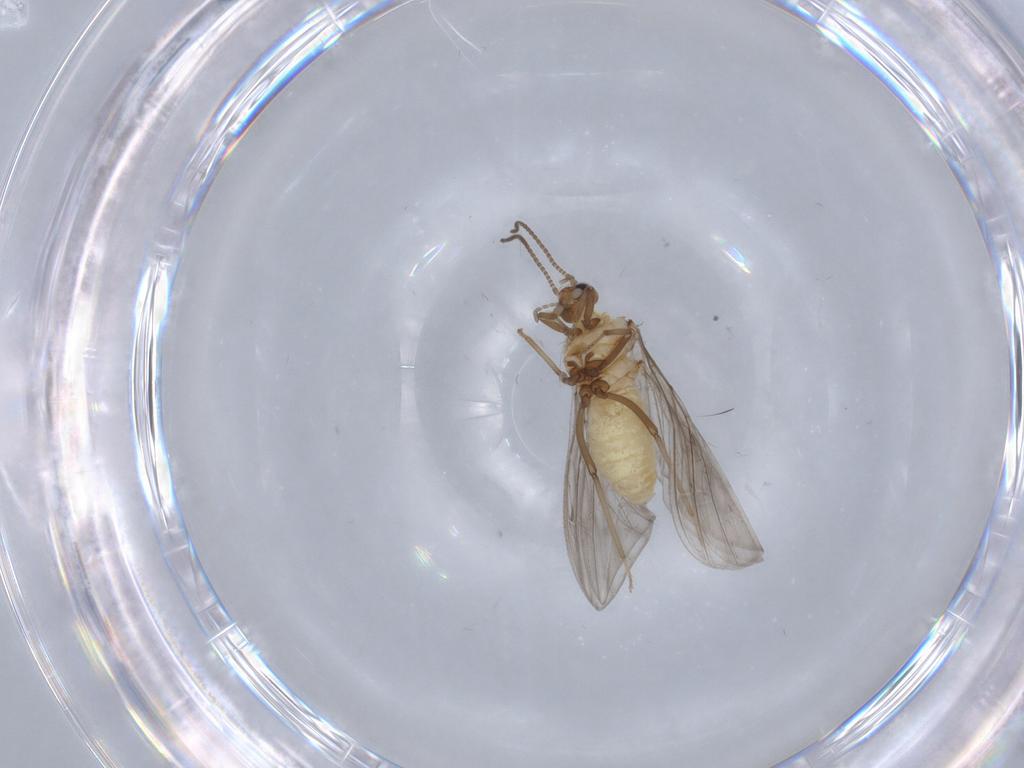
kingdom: Animalia
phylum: Arthropoda
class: Insecta
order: Neuroptera
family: Coniopterygidae
